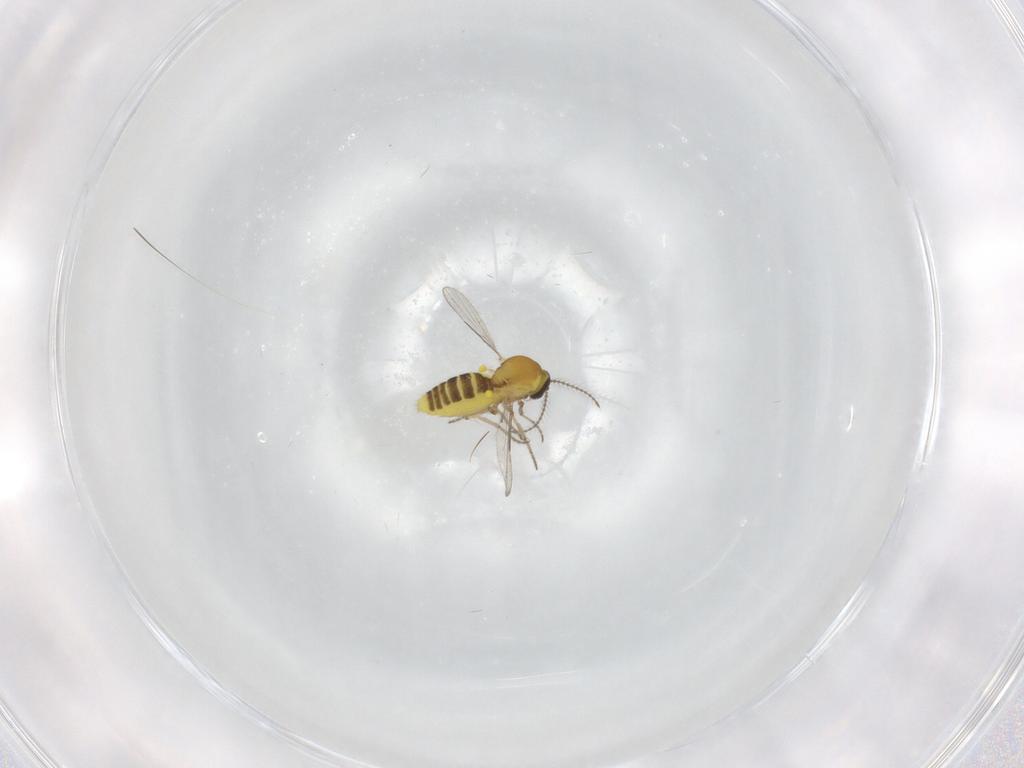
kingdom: Animalia
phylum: Arthropoda
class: Insecta
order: Diptera
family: Ceratopogonidae
